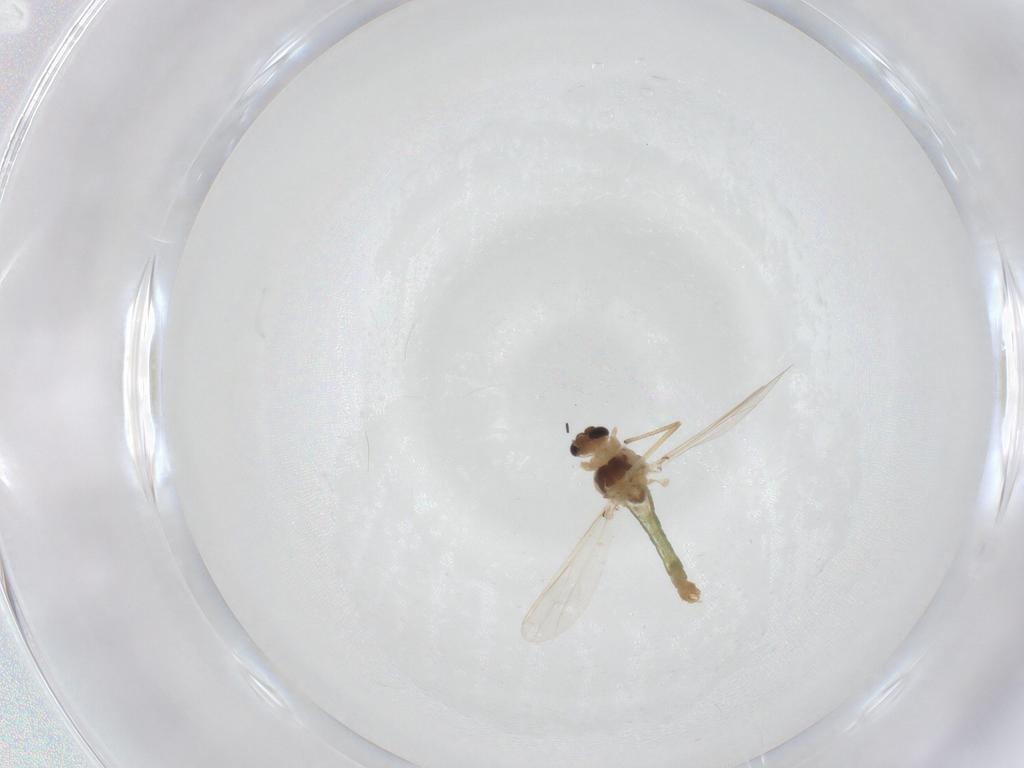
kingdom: Animalia
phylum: Arthropoda
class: Insecta
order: Diptera
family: Chironomidae
